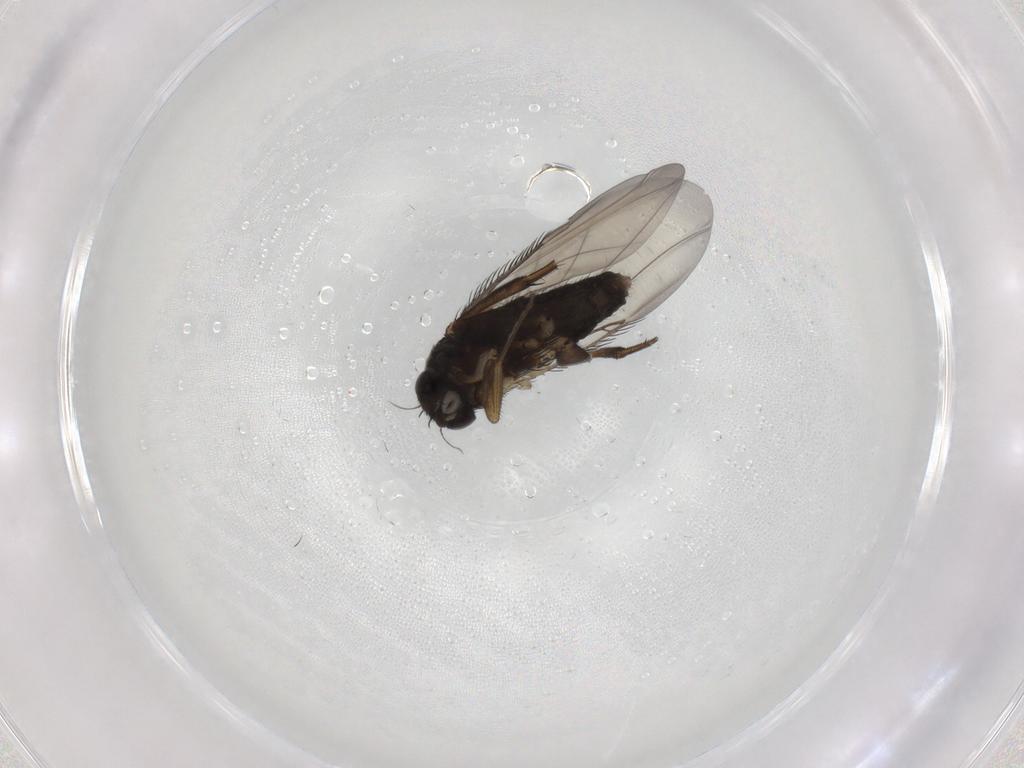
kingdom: Animalia
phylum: Arthropoda
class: Insecta
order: Diptera
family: Phoridae
